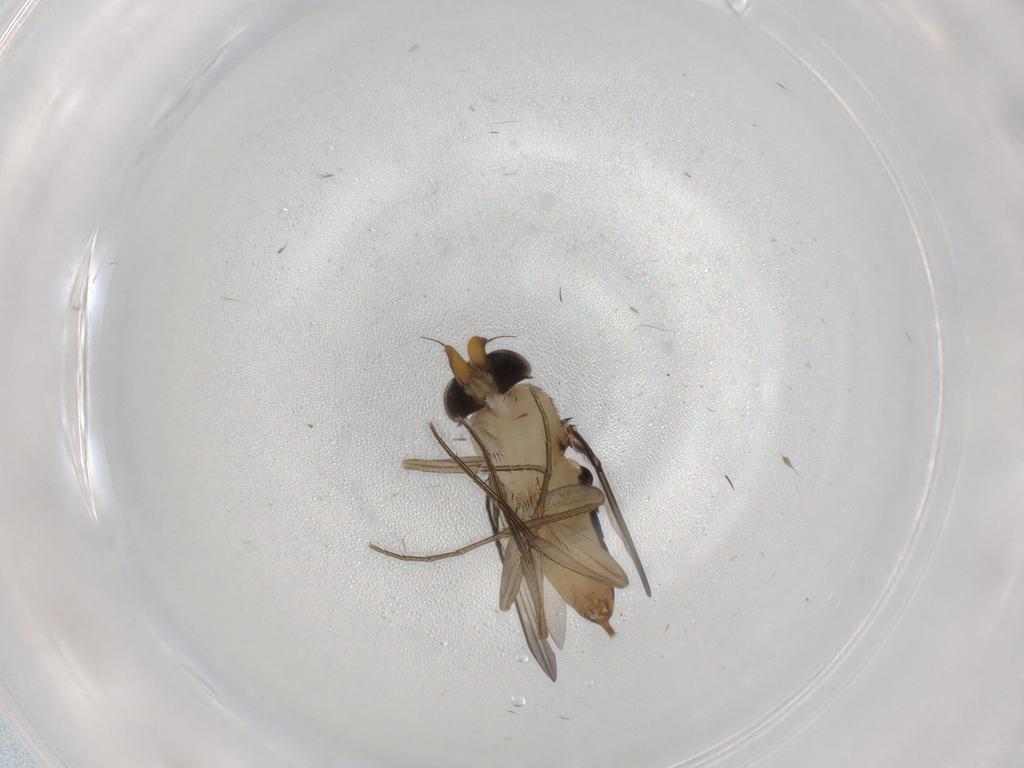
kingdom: Animalia
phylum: Arthropoda
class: Insecta
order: Diptera
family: Phoridae
